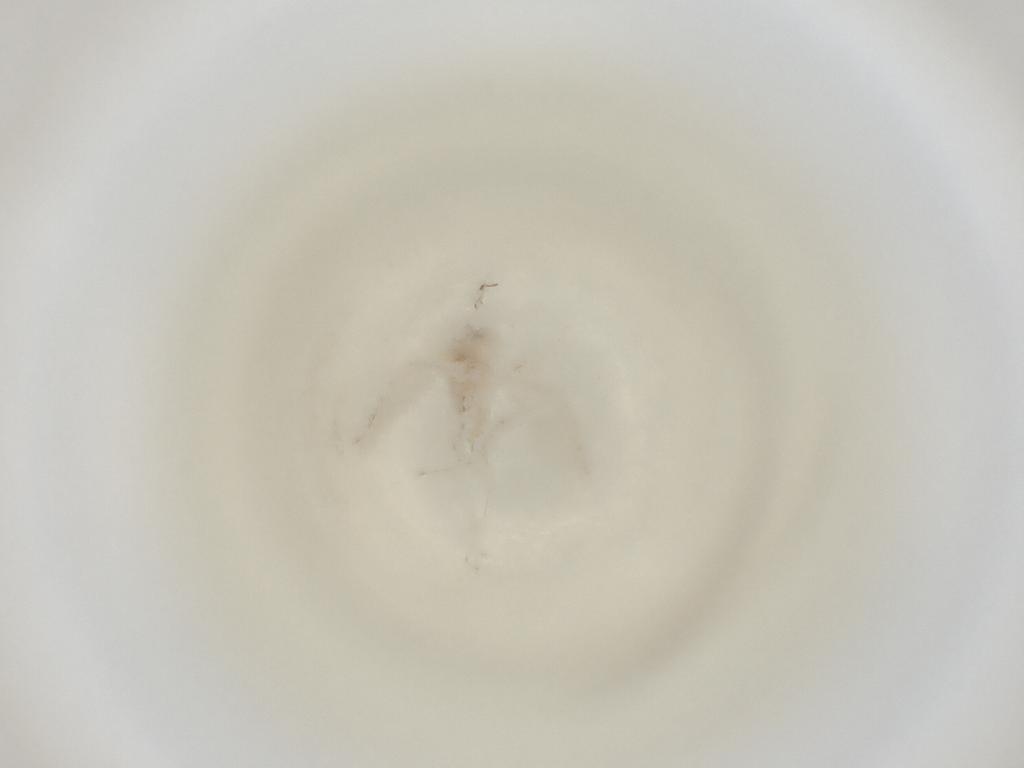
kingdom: Animalia
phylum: Arthropoda
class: Insecta
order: Diptera
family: Cecidomyiidae
